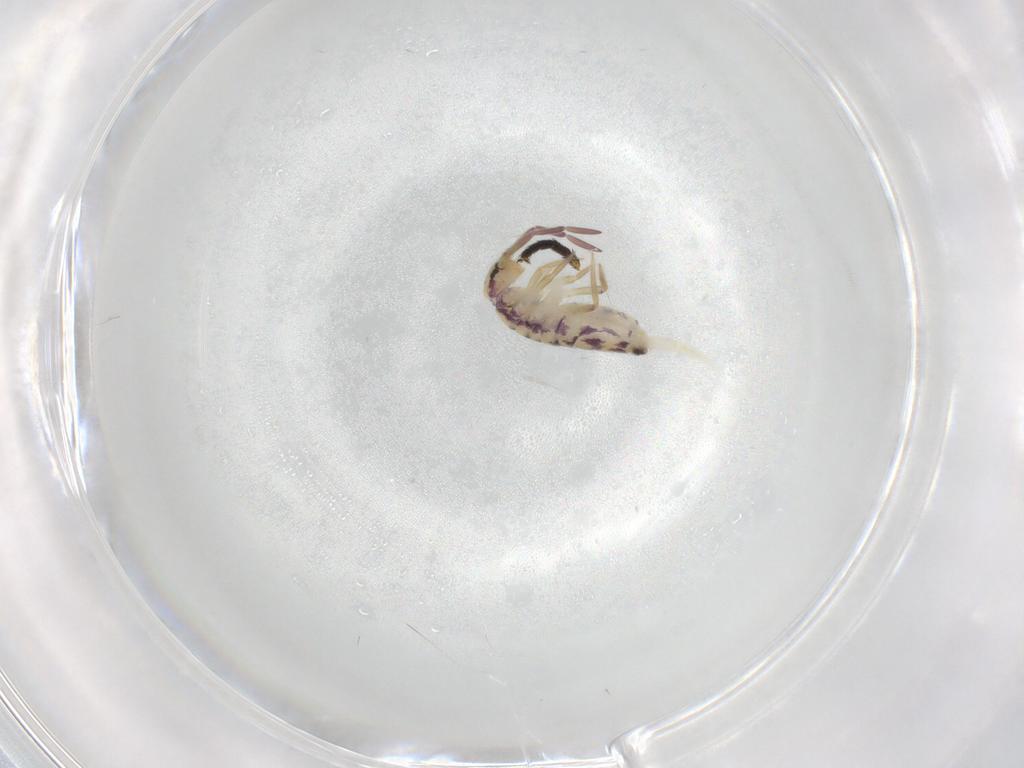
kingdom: Animalia
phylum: Arthropoda
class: Collembola
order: Entomobryomorpha
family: Entomobryidae
